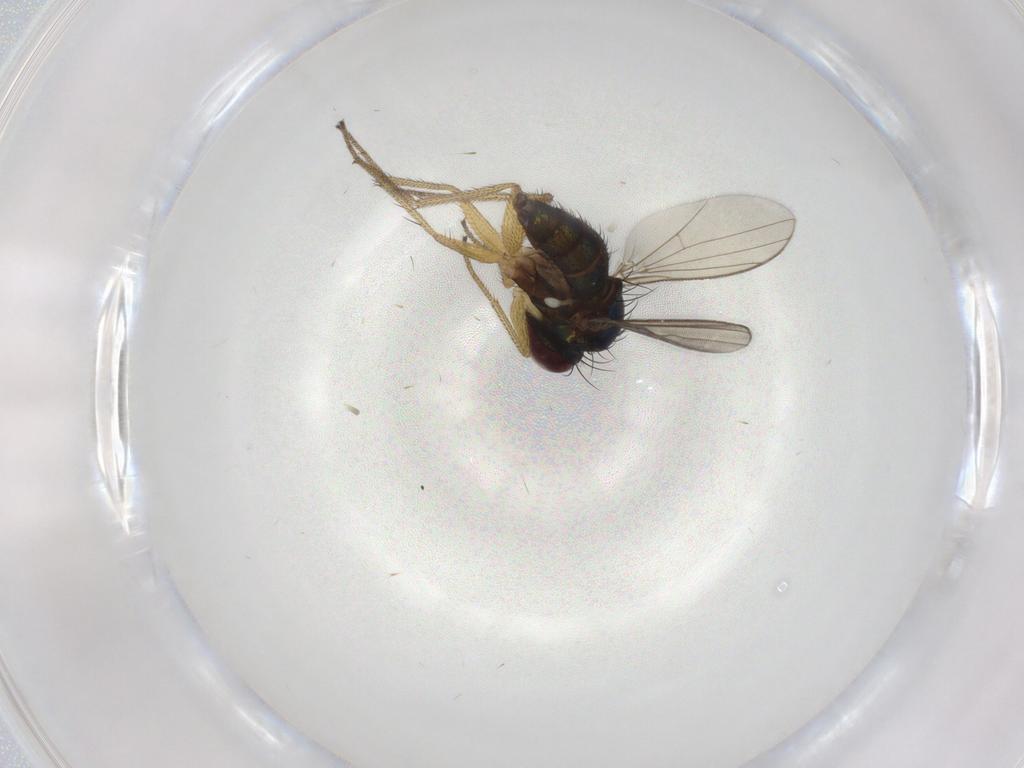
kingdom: Animalia
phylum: Arthropoda
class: Insecta
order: Diptera
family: Dolichopodidae
